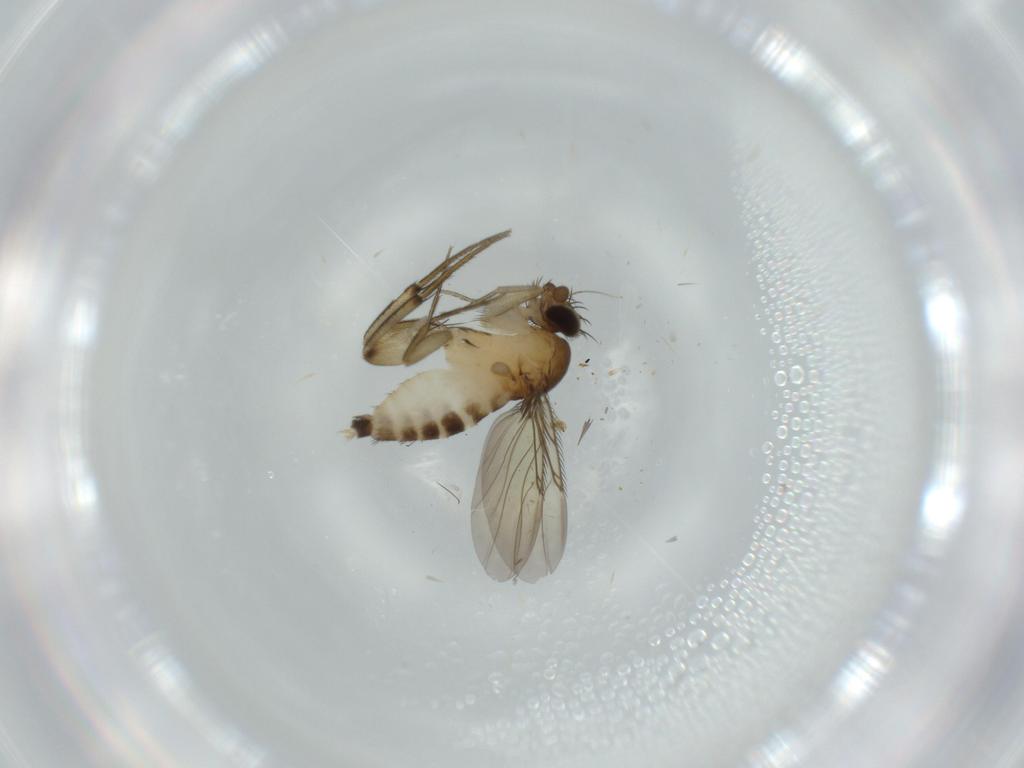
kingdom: Animalia
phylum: Arthropoda
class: Insecta
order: Diptera
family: Phoridae
